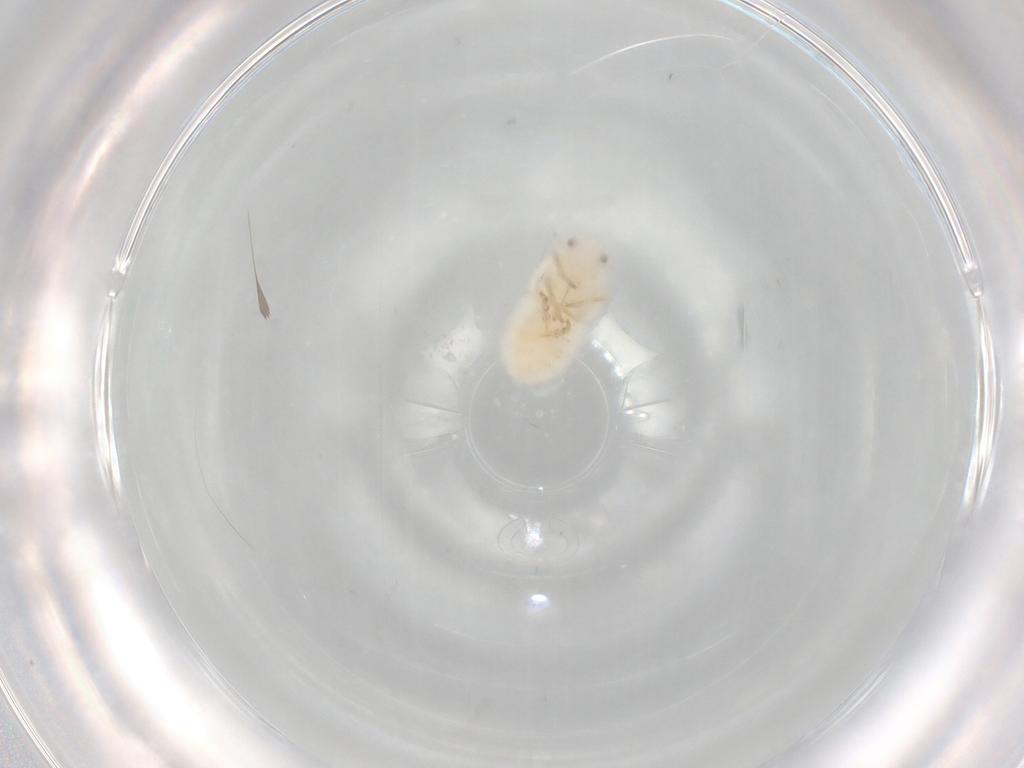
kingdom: Animalia
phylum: Arthropoda
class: Insecta
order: Hemiptera
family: Flatidae
